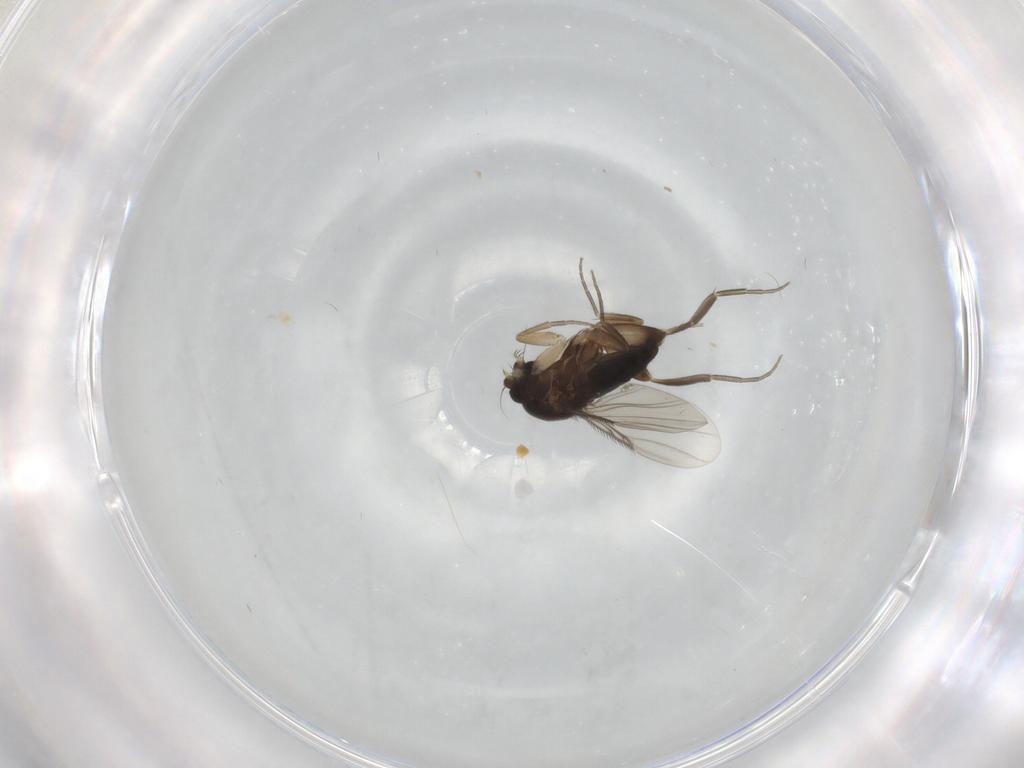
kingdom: Animalia
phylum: Arthropoda
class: Insecta
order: Diptera
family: Phoridae
